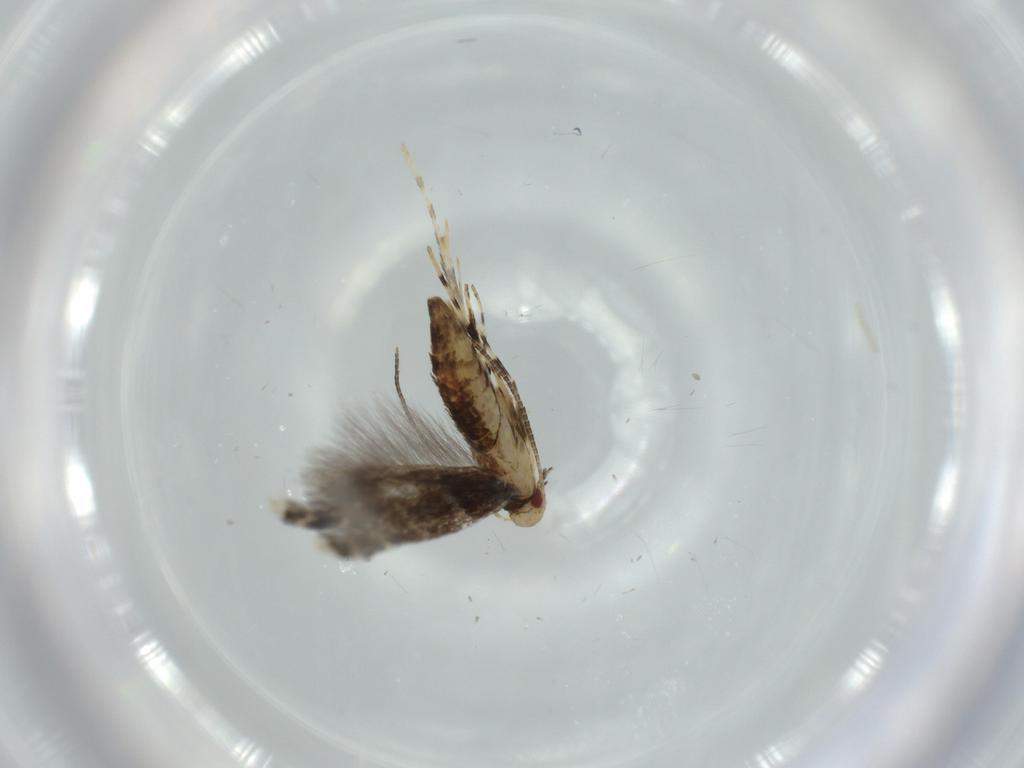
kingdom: Animalia
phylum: Arthropoda
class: Insecta
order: Lepidoptera
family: Gracillariidae
